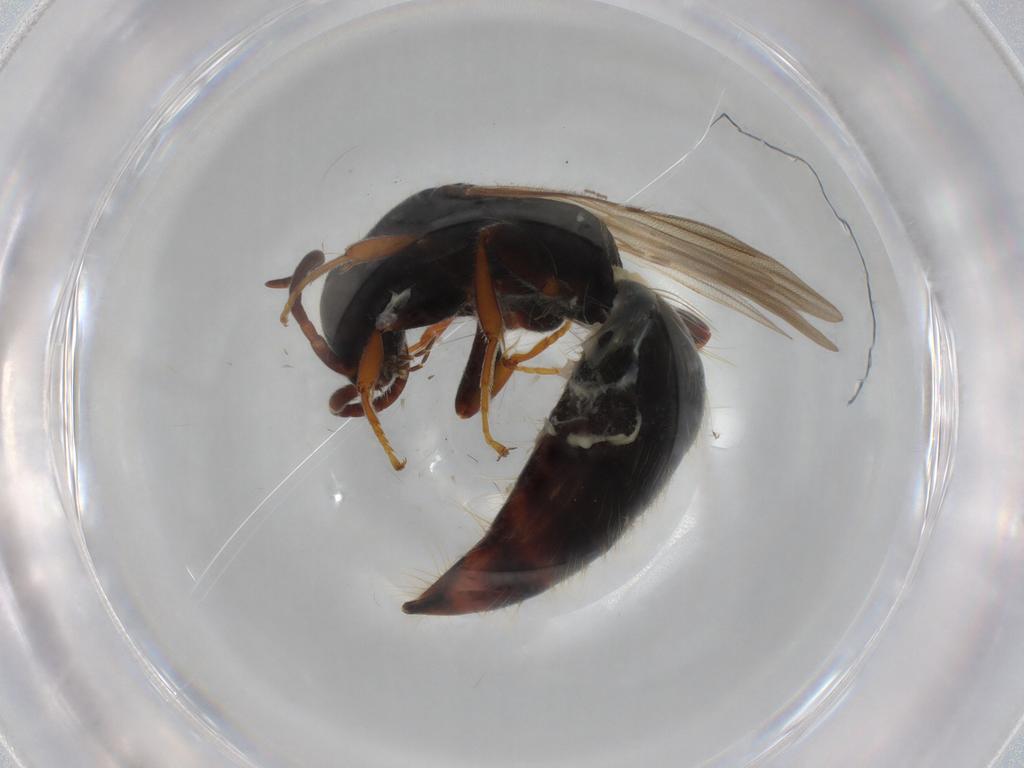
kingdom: Animalia
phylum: Arthropoda
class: Insecta
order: Hymenoptera
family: Bethylidae
